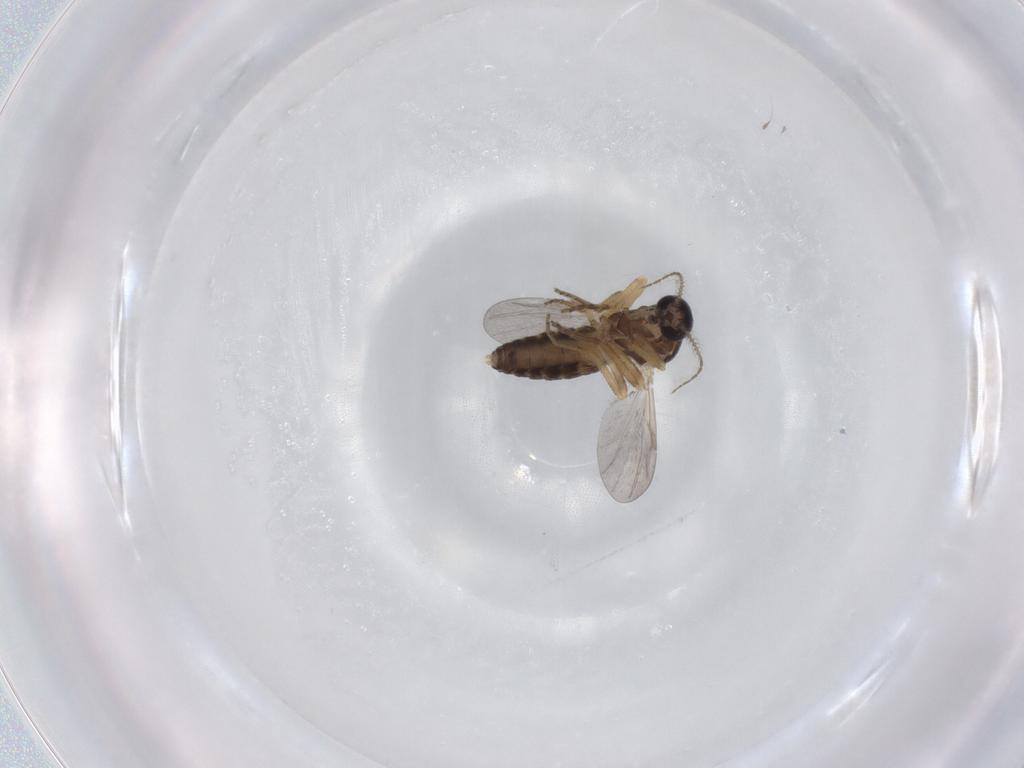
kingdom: Animalia
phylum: Arthropoda
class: Insecta
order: Diptera
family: Ceratopogonidae
